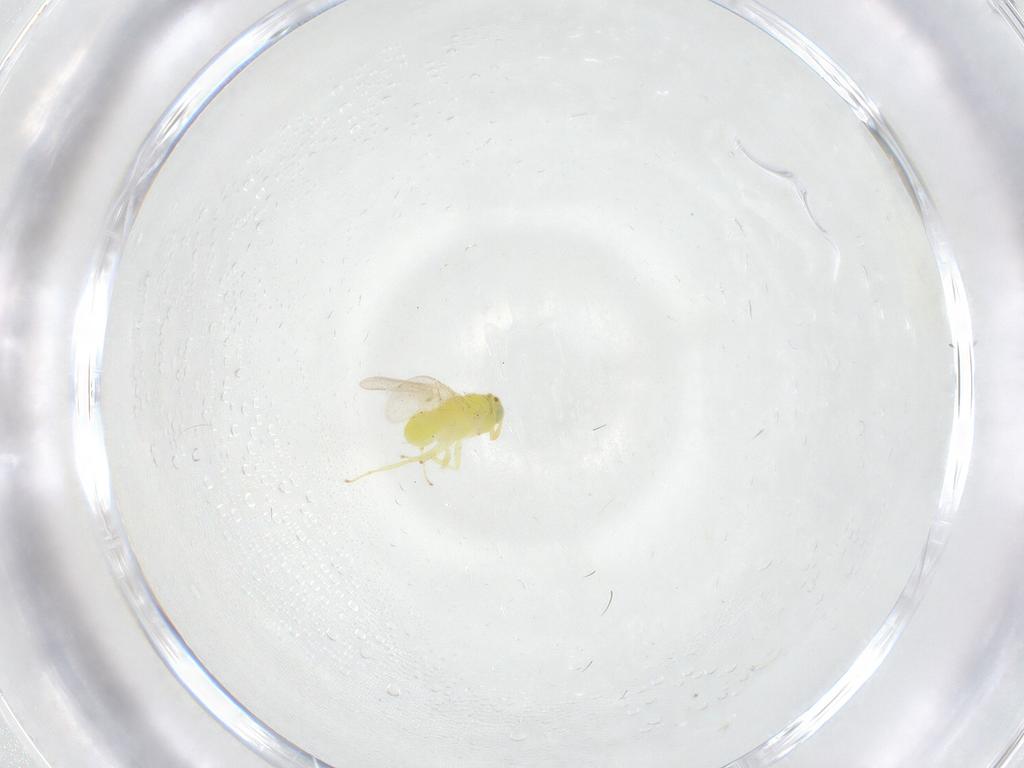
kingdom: Animalia
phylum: Arthropoda
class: Insecta
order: Hymenoptera
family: Aphelinidae
